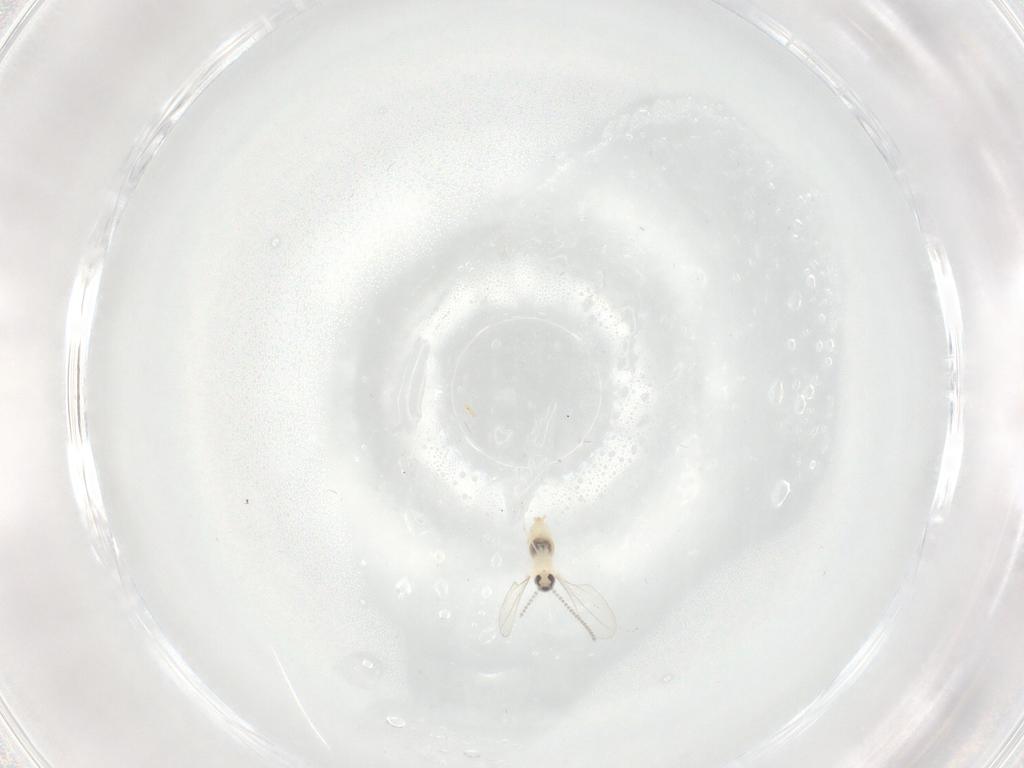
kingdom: Animalia
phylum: Arthropoda
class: Insecta
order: Diptera
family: Cecidomyiidae
